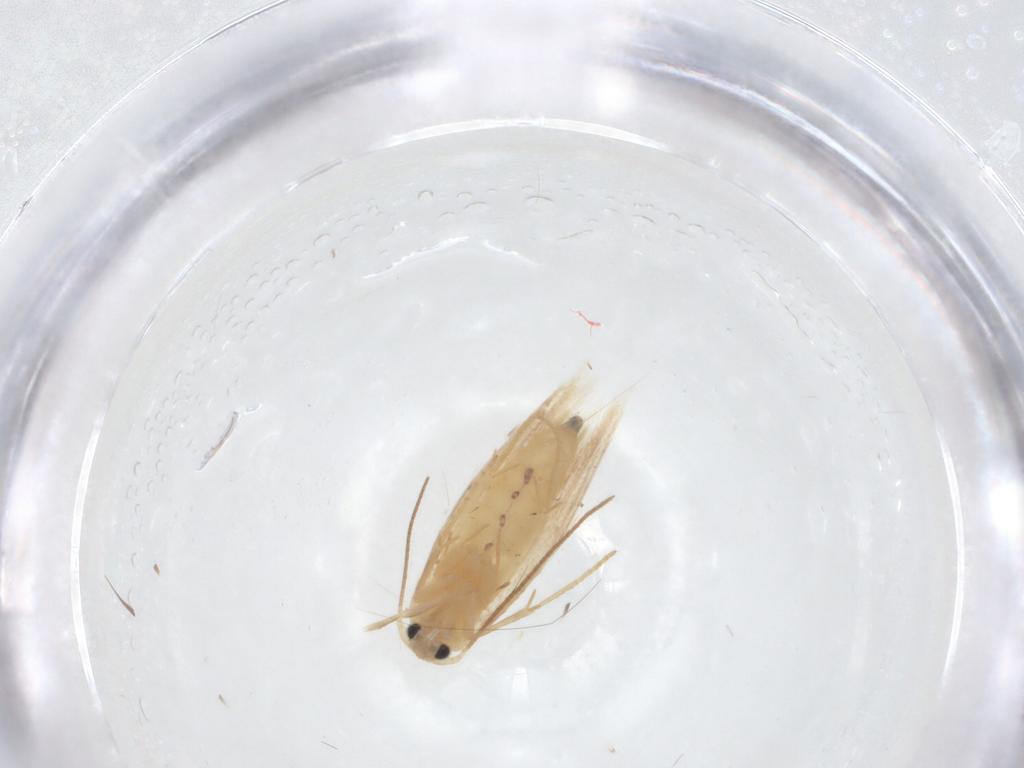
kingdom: Animalia
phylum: Arthropoda
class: Insecta
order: Lepidoptera
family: Gelechiidae
